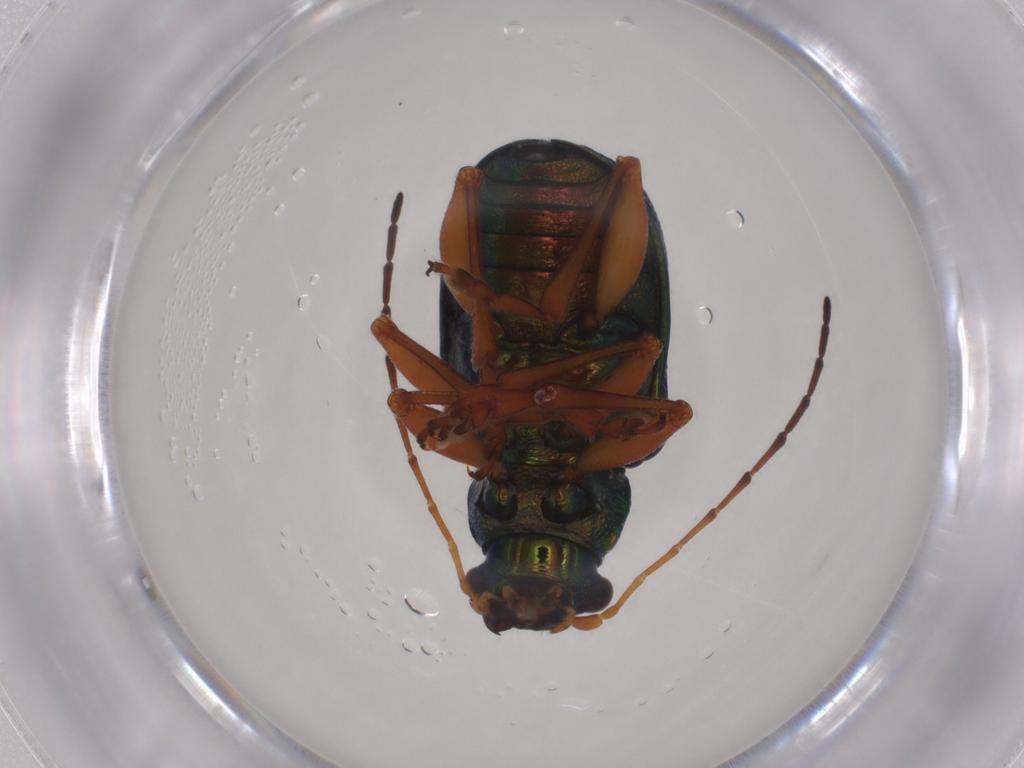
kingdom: Animalia
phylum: Arthropoda
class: Insecta
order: Coleoptera
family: Chrysomelidae
